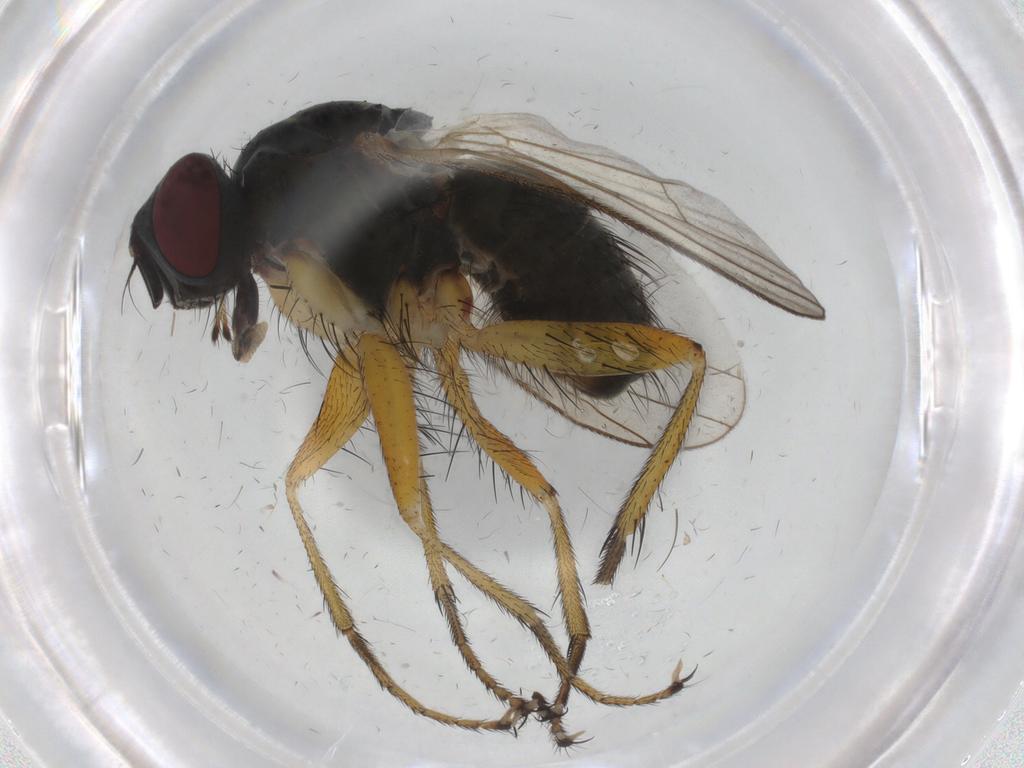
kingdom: Animalia
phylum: Arthropoda
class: Insecta
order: Diptera
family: Muscidae
